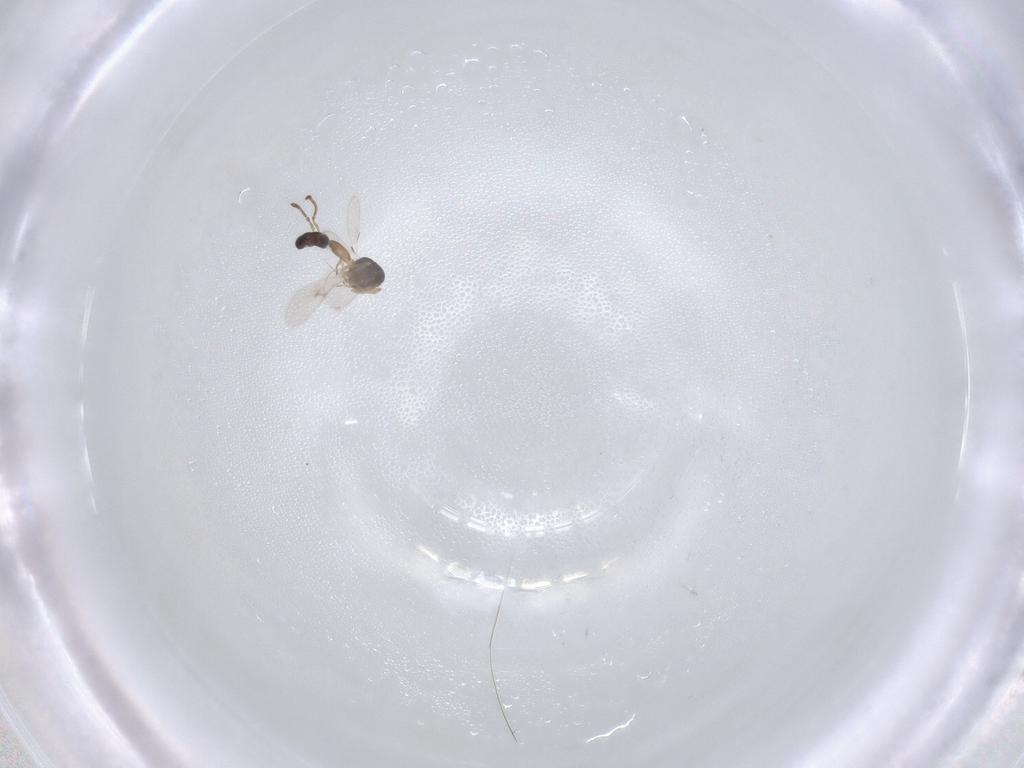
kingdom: Animalia
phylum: Arthropoda
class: Insecta
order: Hymenoptera
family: Scelionidae
